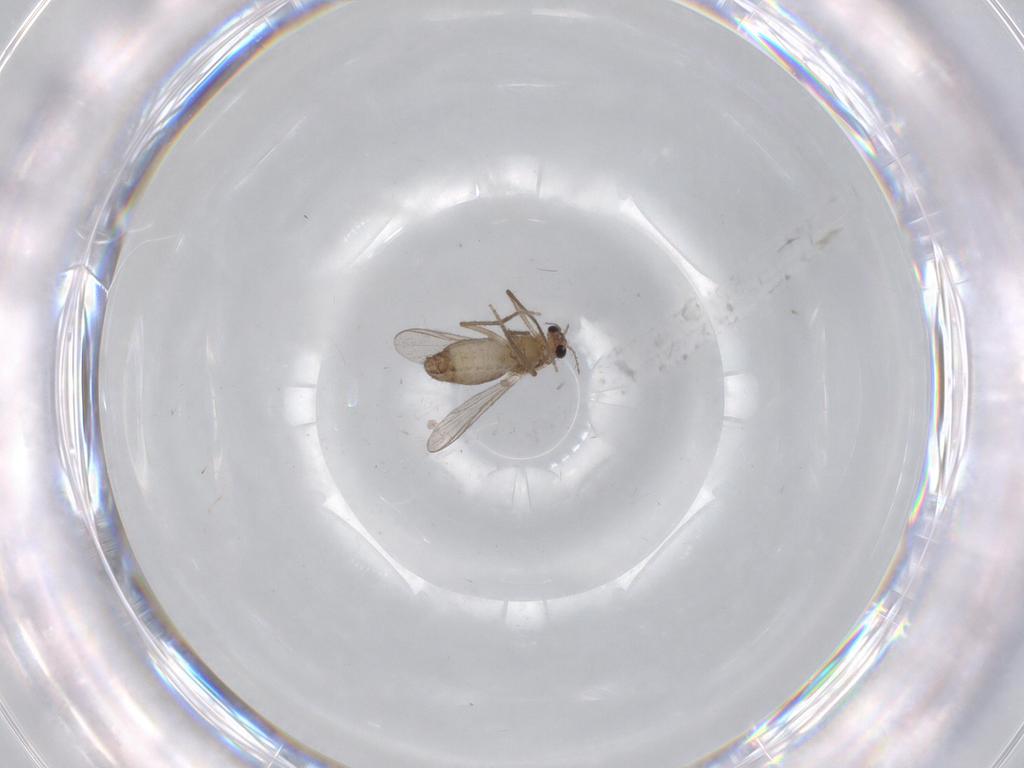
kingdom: Animalia
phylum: Arthropoda
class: Insecta
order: Diptera
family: Chironomidae
